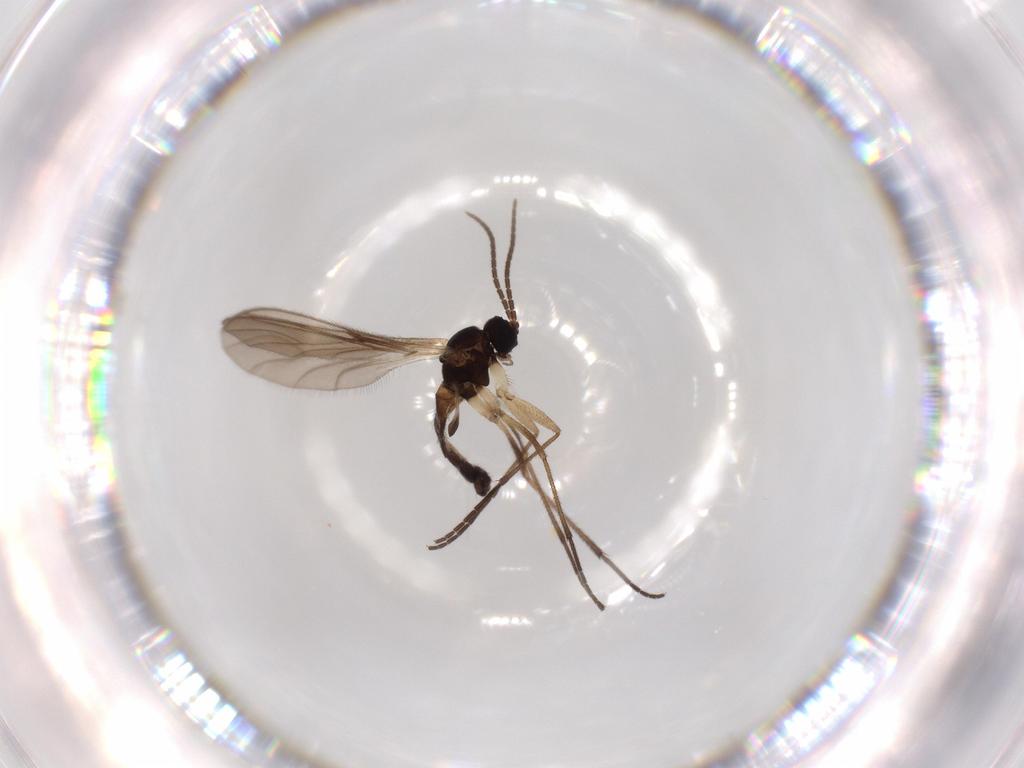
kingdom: Animalia
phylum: Arthropoda
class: Insecta
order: Diptera
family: Sciaridae
